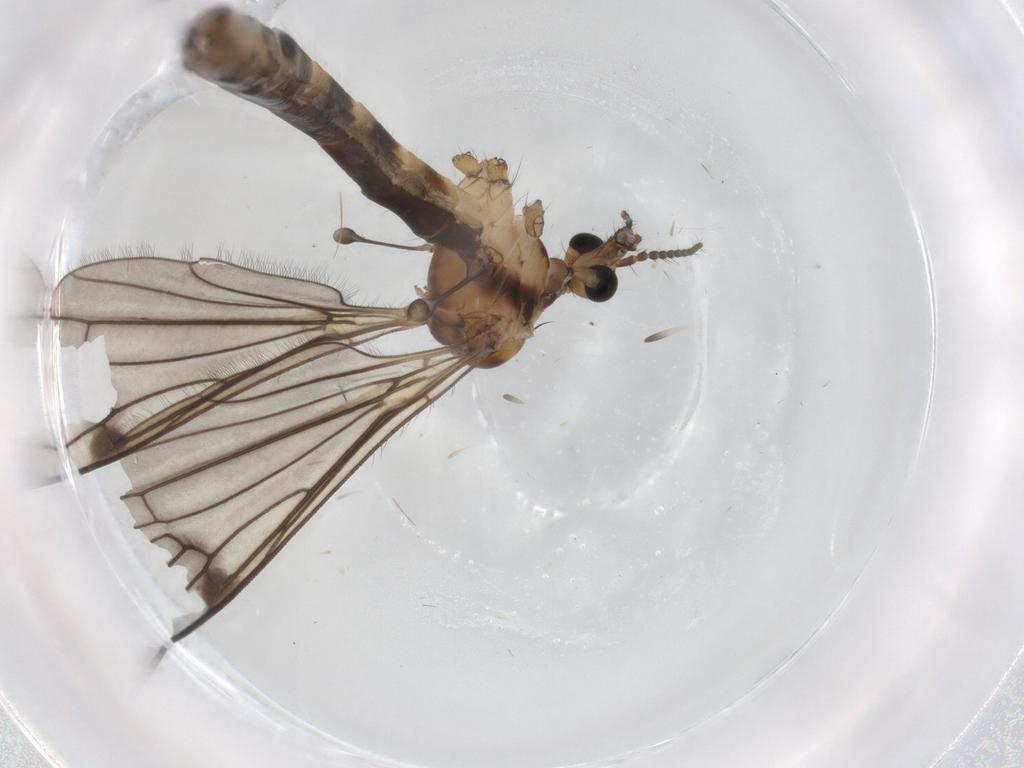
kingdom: Animalia
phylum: Arthropoda
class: Insecta
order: Diptera
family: Limoniidae
